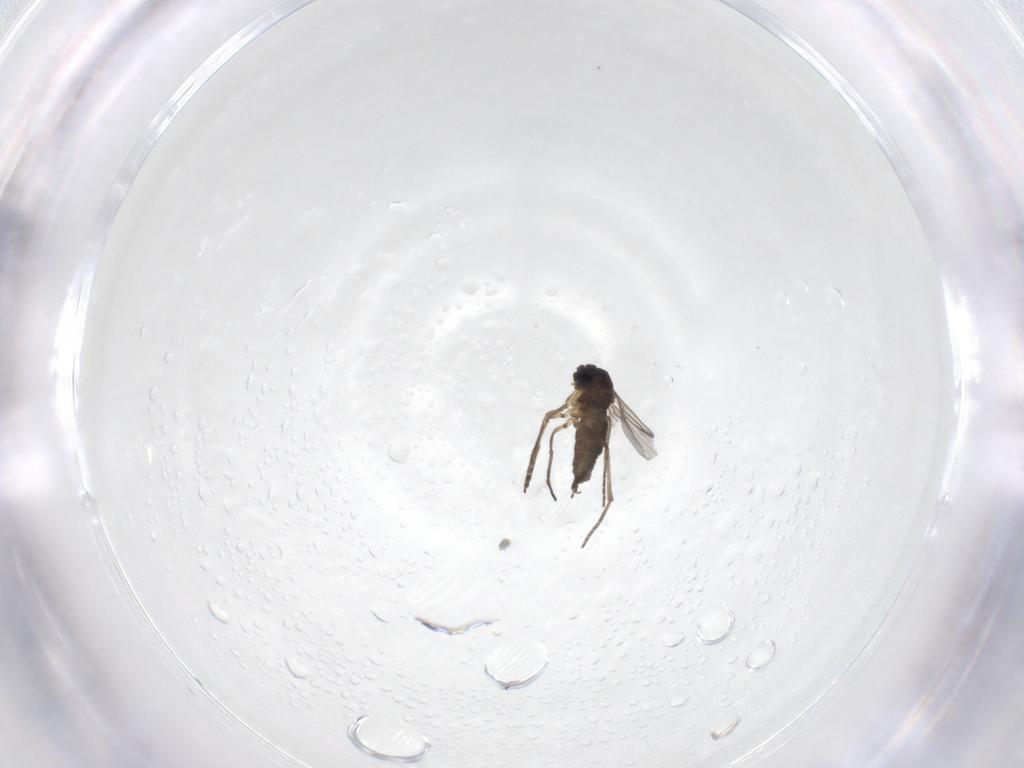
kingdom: Animalia
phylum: Arthropoda
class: Insecta
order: Diptera
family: Sciaridae
